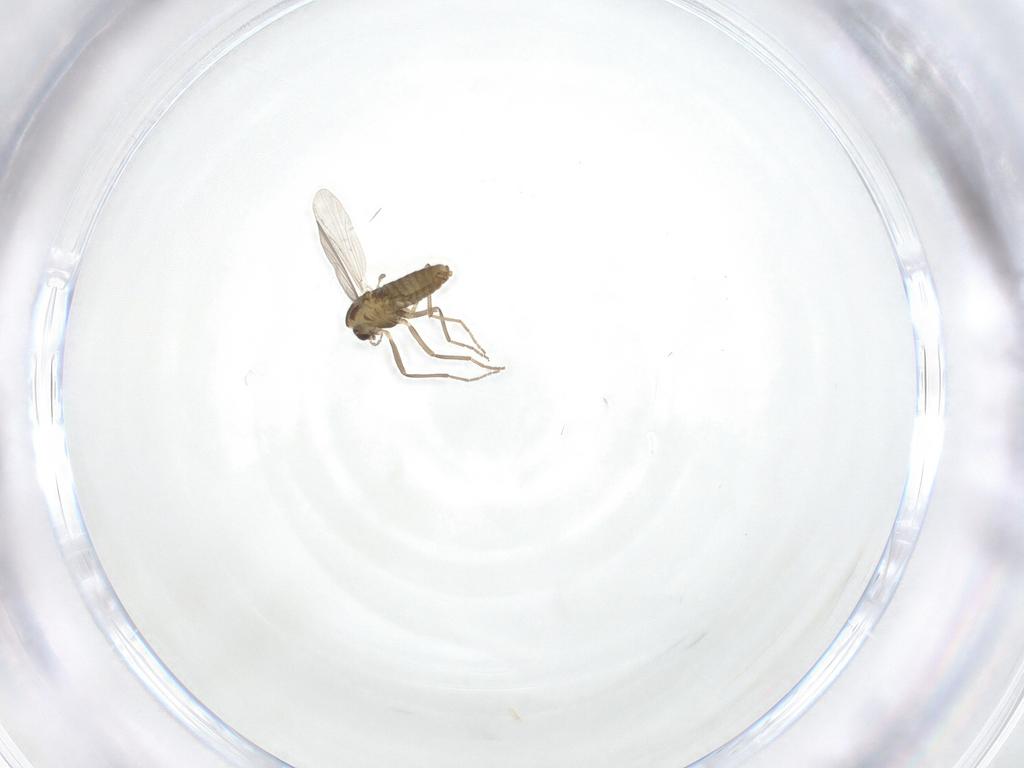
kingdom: Animalia
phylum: Arthropoda
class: Insecta
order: Diptera
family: Chironomidae
